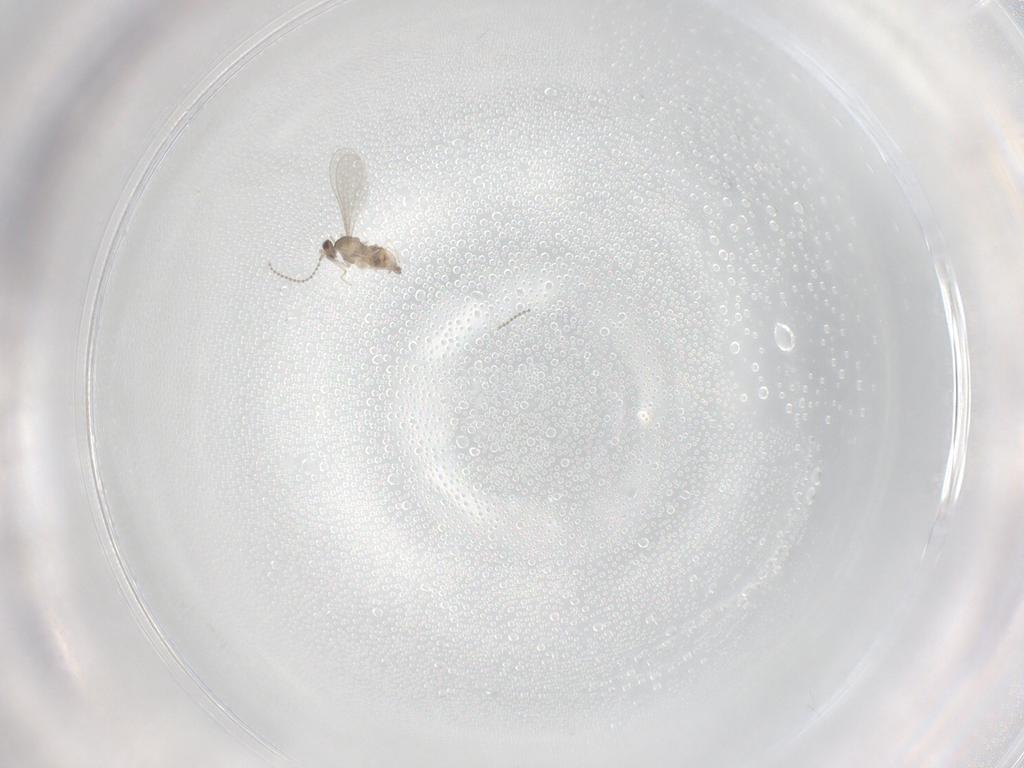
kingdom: Animalia
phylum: Arthropoda
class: Insecta
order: Diptera
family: Cecidomyiidae
